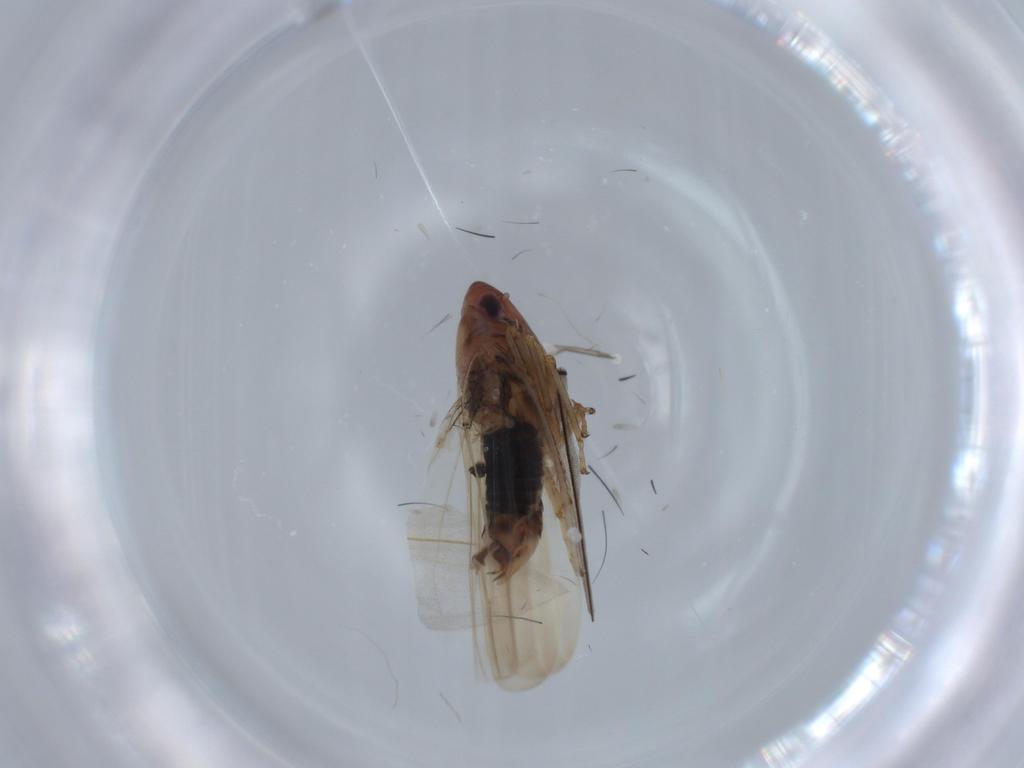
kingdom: Animalia
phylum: Arthropoda
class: Insecta
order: Hemiptera
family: Cicadellidae
